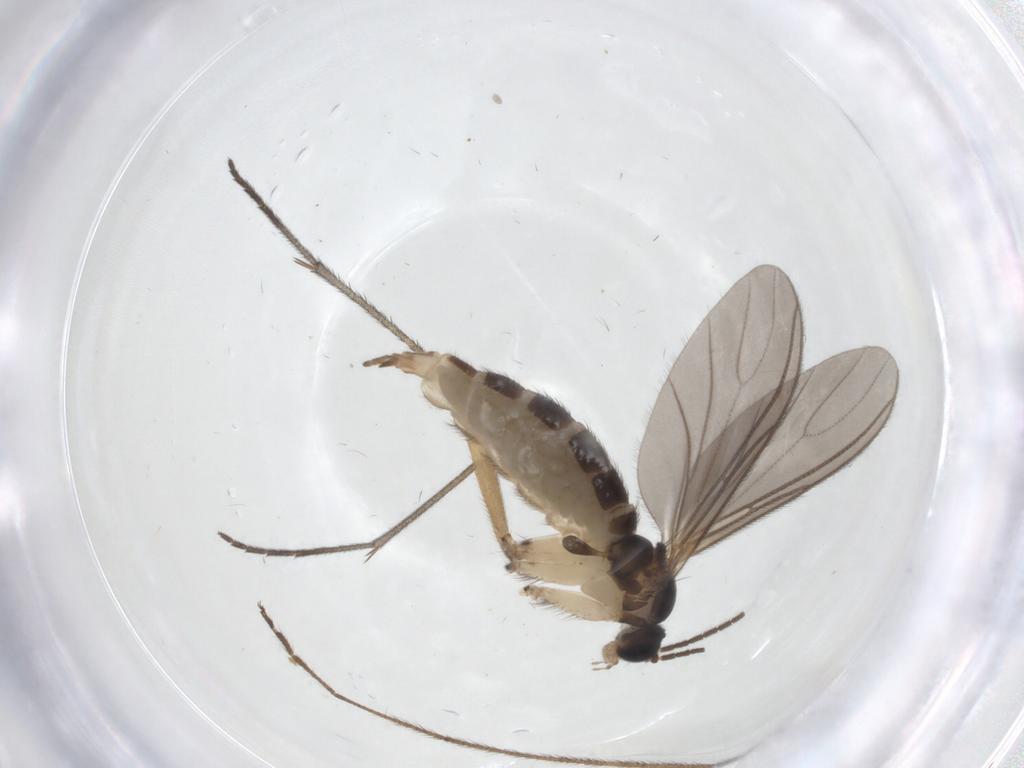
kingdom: Animalia
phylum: Arthropoda
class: Insecta
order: Diptera
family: Sciaridae
